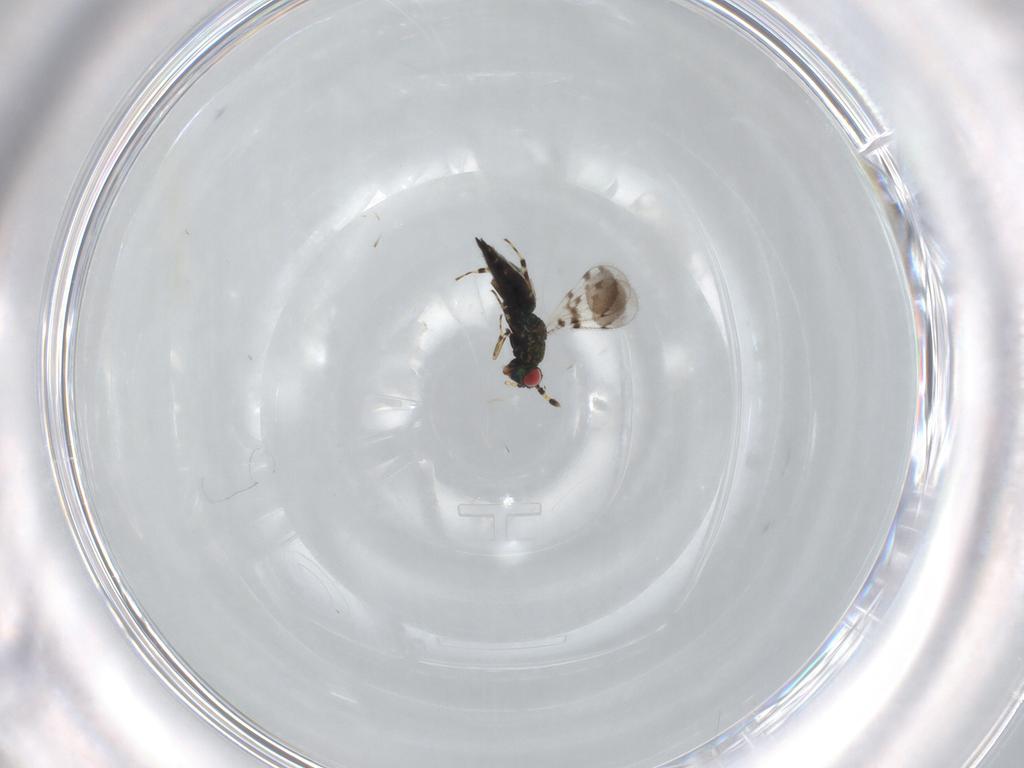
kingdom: Animalia
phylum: Arthropoda
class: Insecta
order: Hymenoptera
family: Eulophidae
